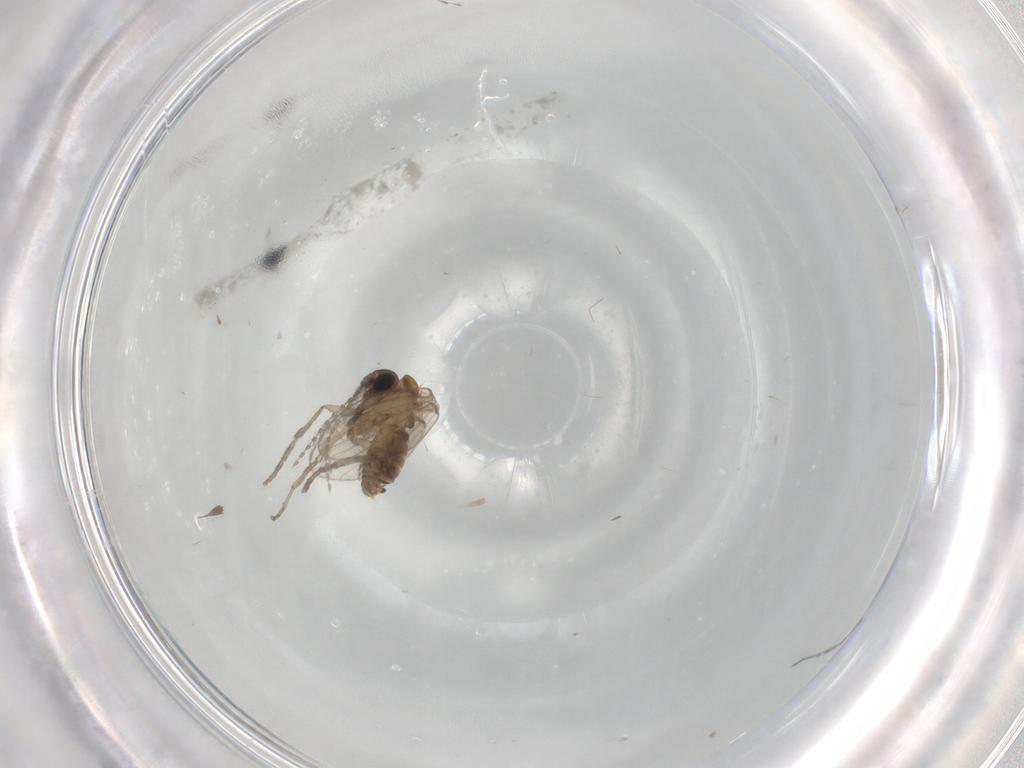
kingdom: Animalia
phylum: Arthropoda
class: Insecta
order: Diptera
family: Psychodidae
